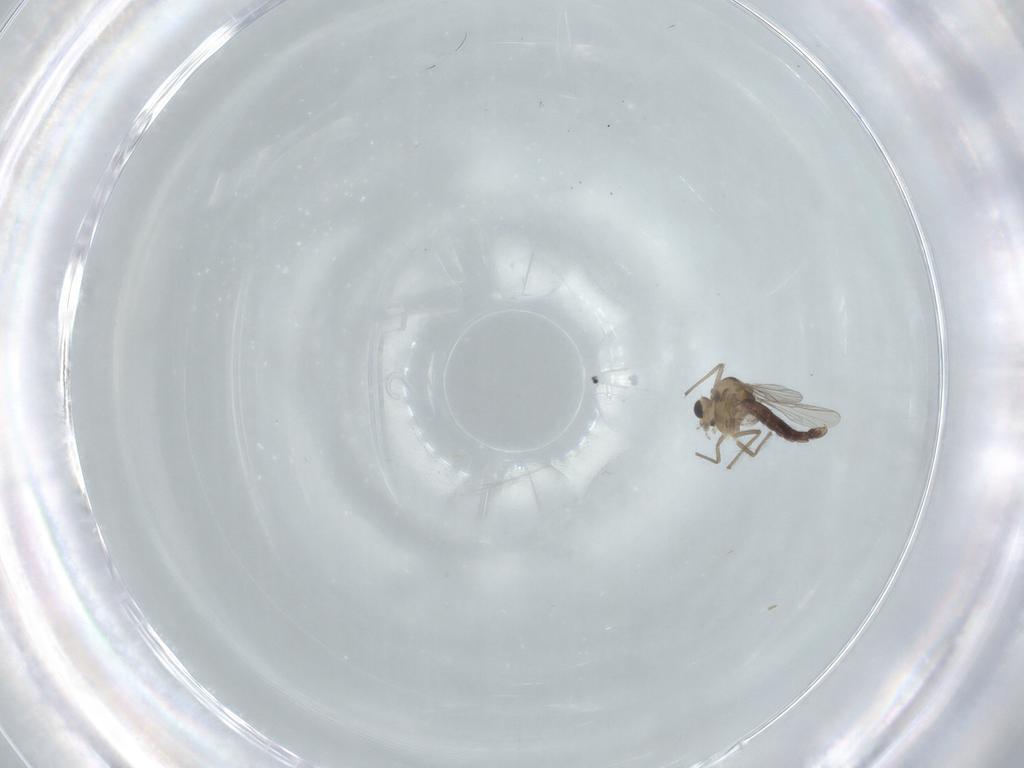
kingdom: Animalia
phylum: Arthropoda
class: Insecta
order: Diptera
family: Chironomidae
